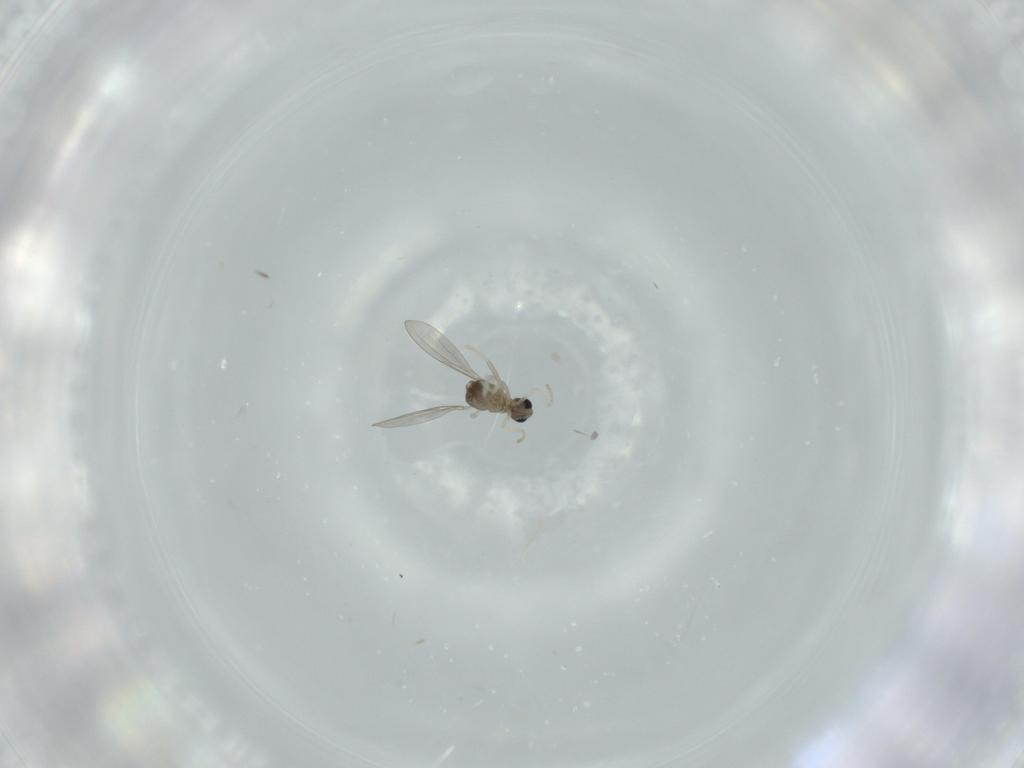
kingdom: Animalia
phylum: Arthropoda
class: Insecta
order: Diptera
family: Cecidomyiidae
